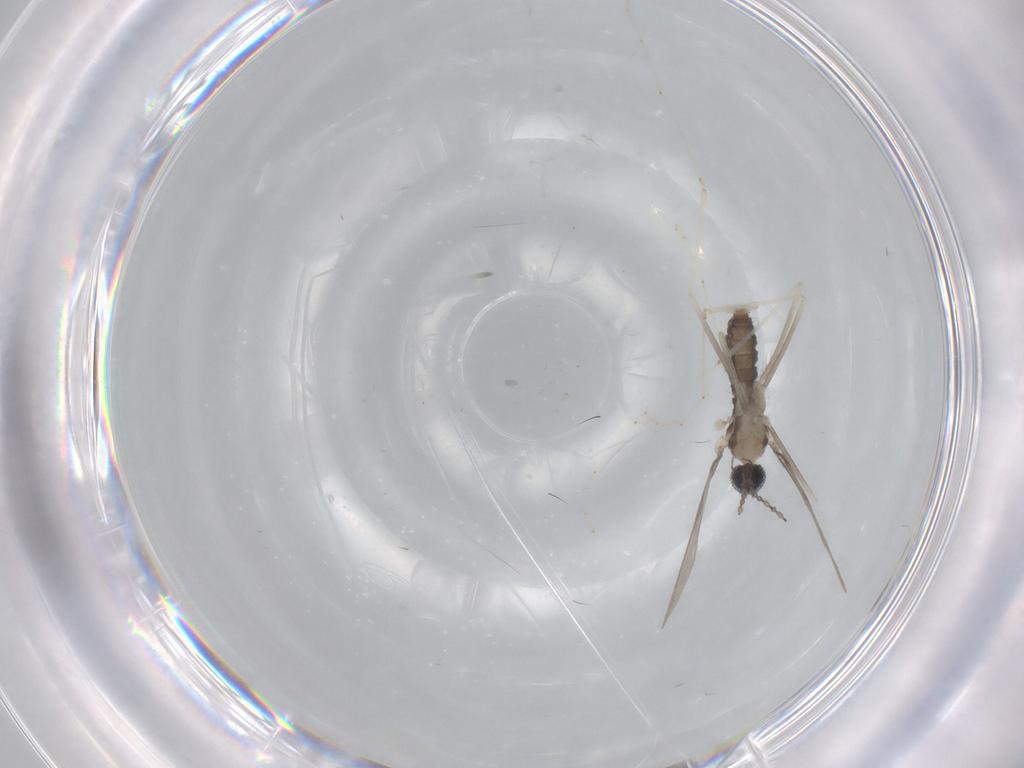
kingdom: Animalia
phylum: Arthropoda
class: Insecta
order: Diptera
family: Cecidomyiidae
